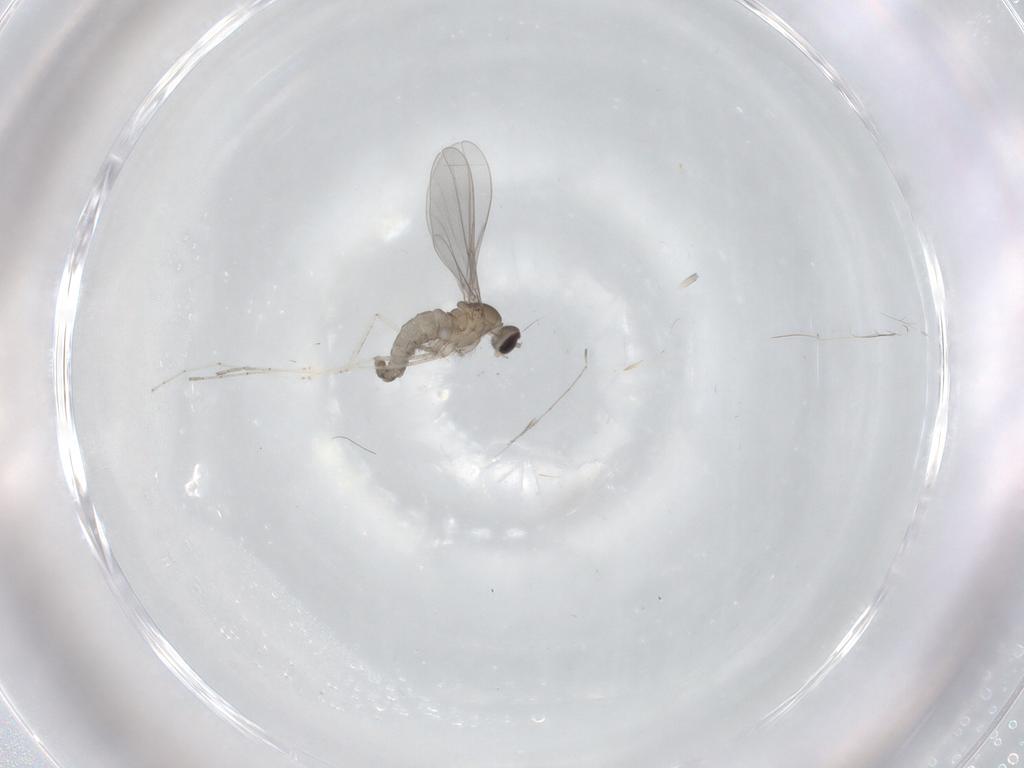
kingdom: Animalia
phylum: Arthropoda
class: Insecta
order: Diptera
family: Cecidomyiidae
